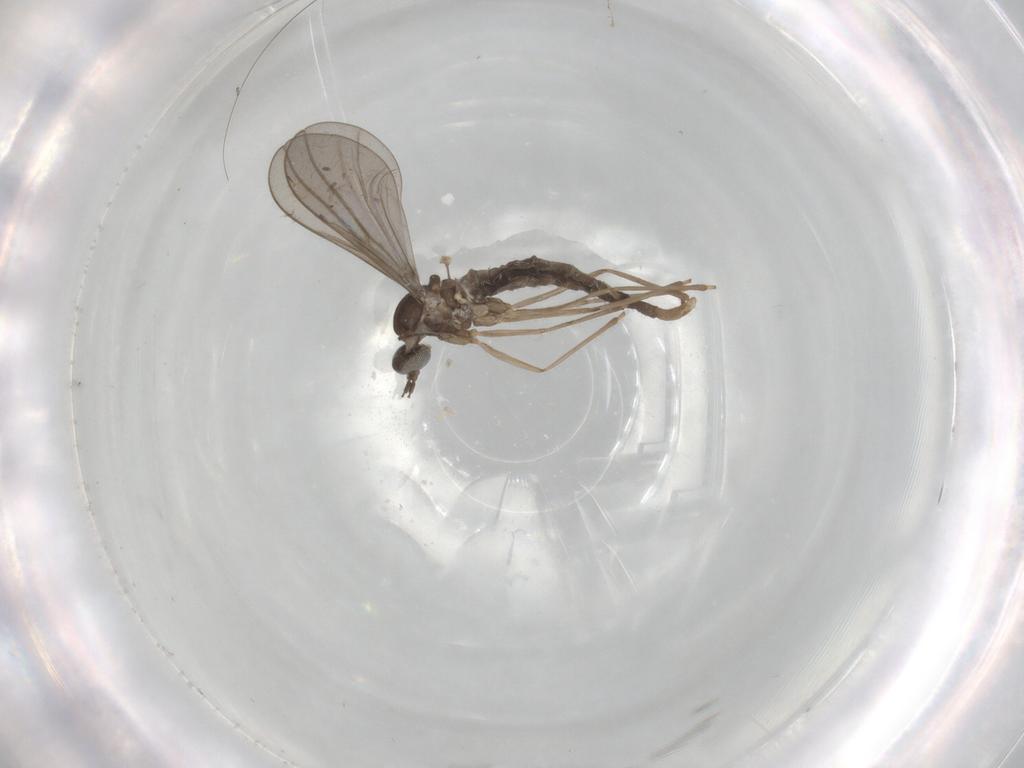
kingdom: Animalia
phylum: Arthropoda
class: Insecta
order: Diptera
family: Cecidomyiidae
